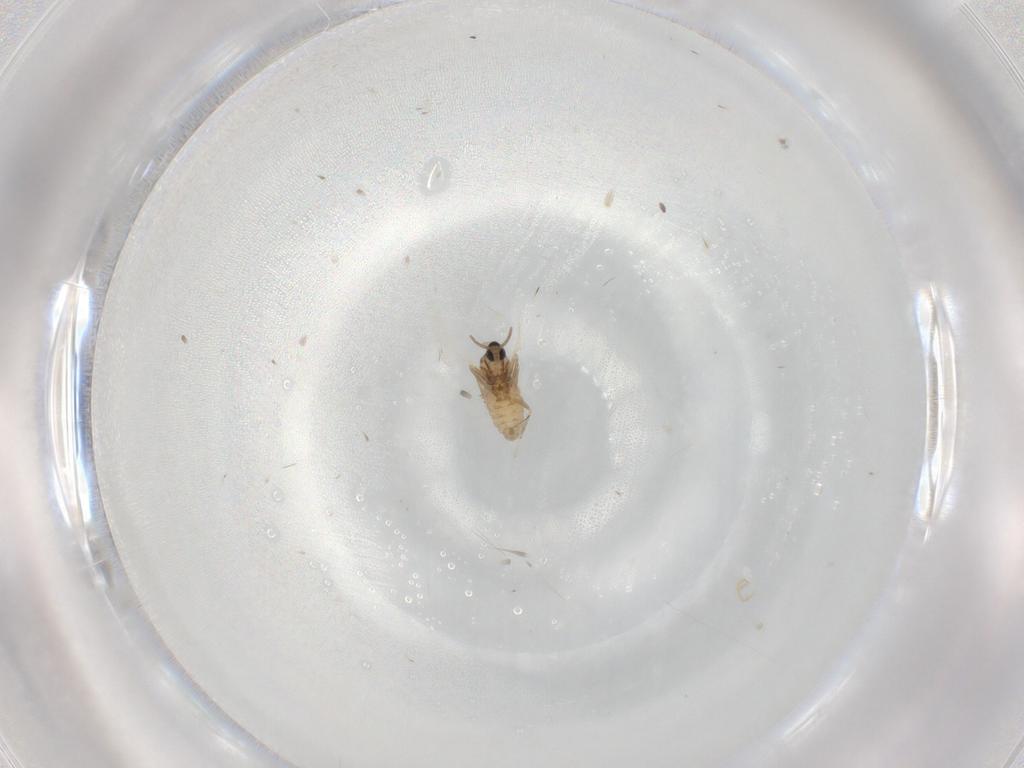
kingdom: Animalia
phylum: Arthropoda
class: Insecta
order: Diptera
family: Cecidomyiidae
